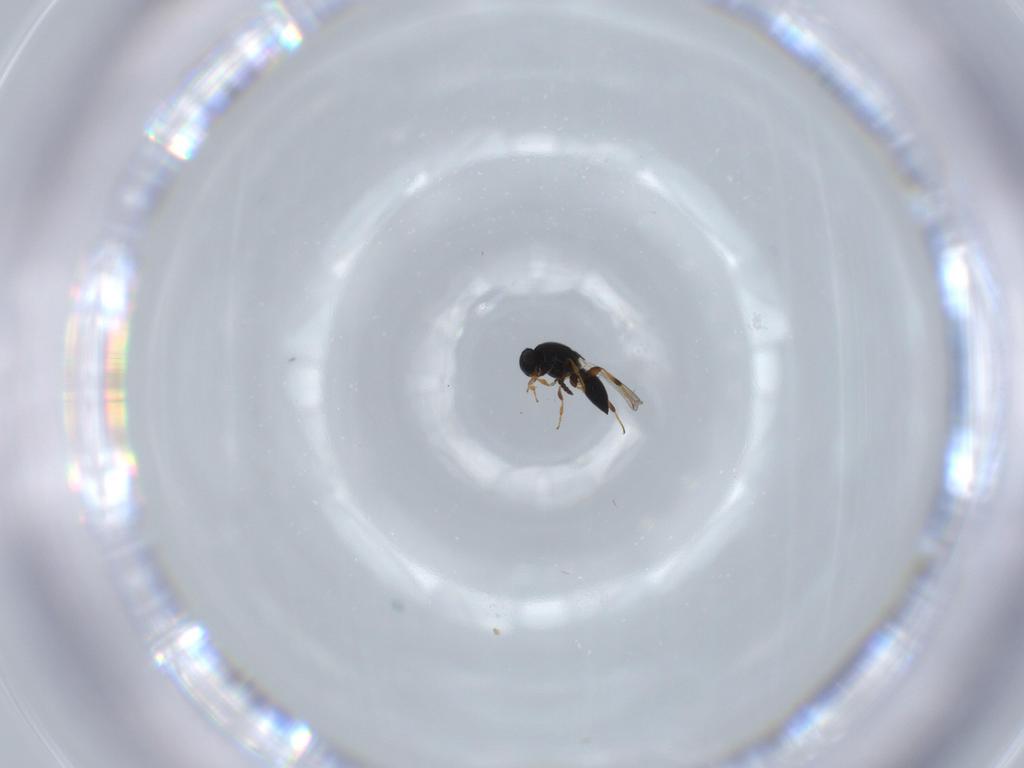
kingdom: Animalia
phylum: Arthropoda
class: Insecta
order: Hymenoptera
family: Platygastridae
